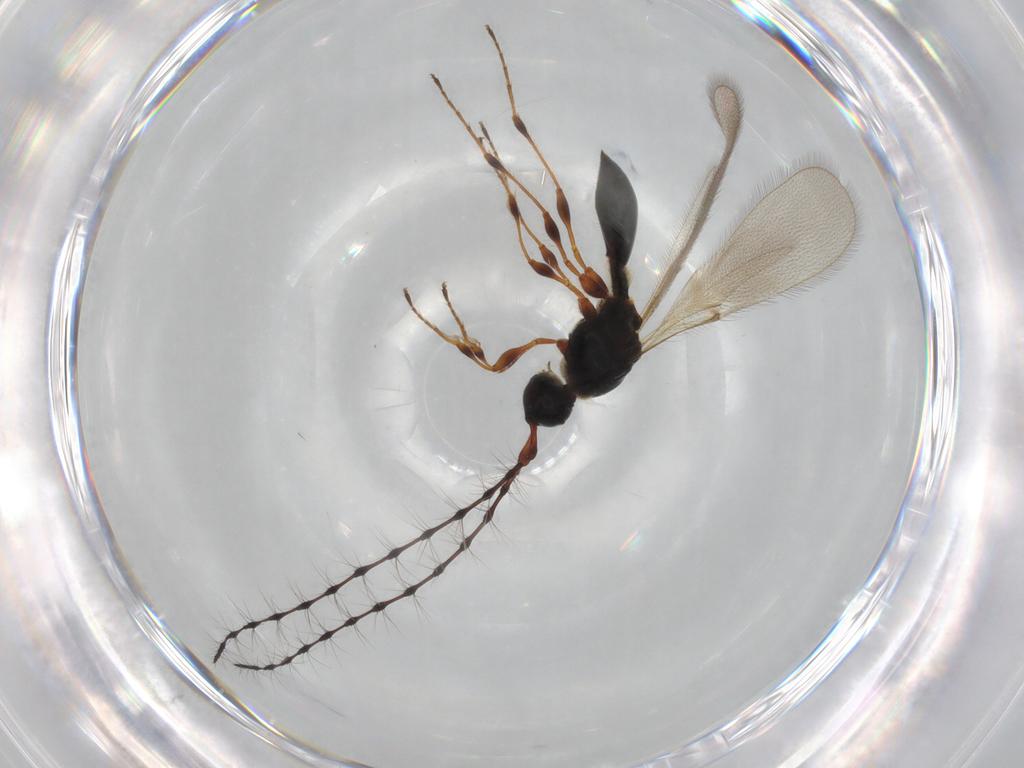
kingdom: Animalia
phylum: Arthropoda
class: Insecta
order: Hymenoptera
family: Diapriidae
